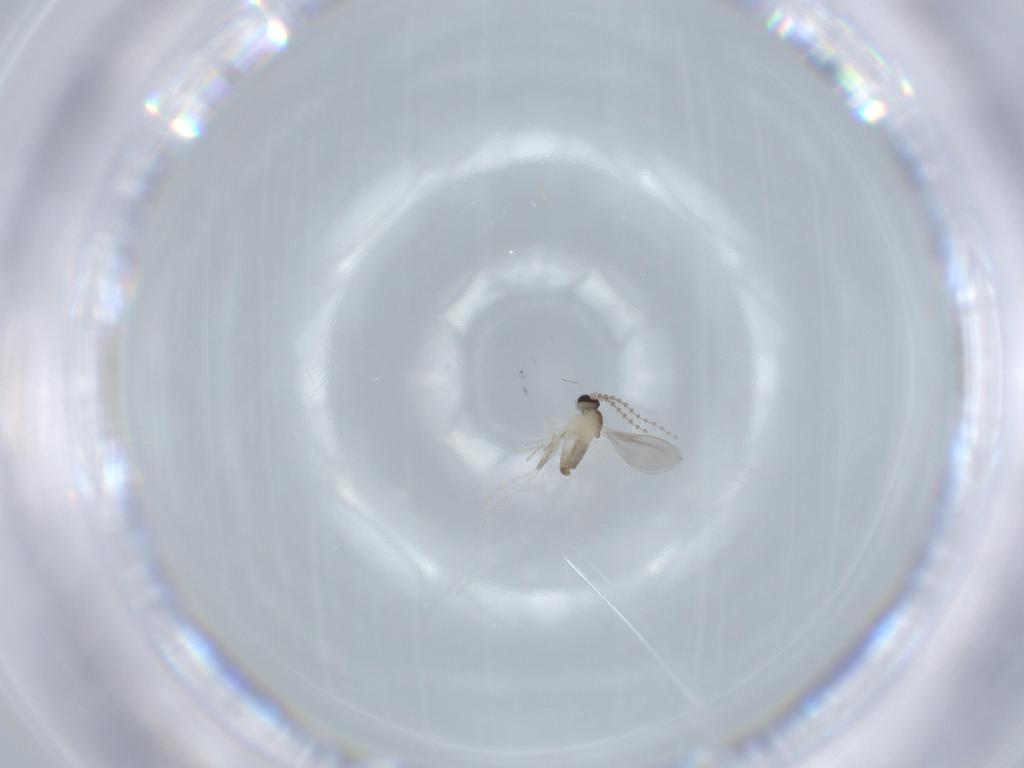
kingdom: Animalia
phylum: Arthropoda
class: Insecta
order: Diptera
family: Cecidomyiidae
